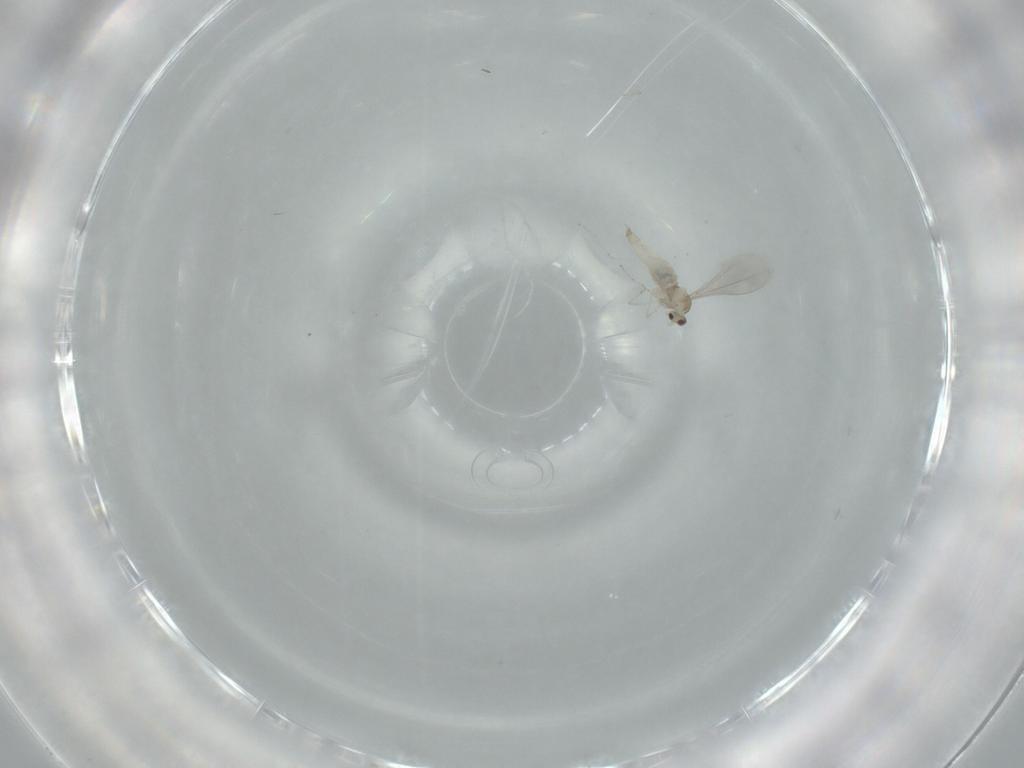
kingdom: Animalia
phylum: Arthropoda
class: Insecta
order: Diptera
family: Cecidomyiidae
